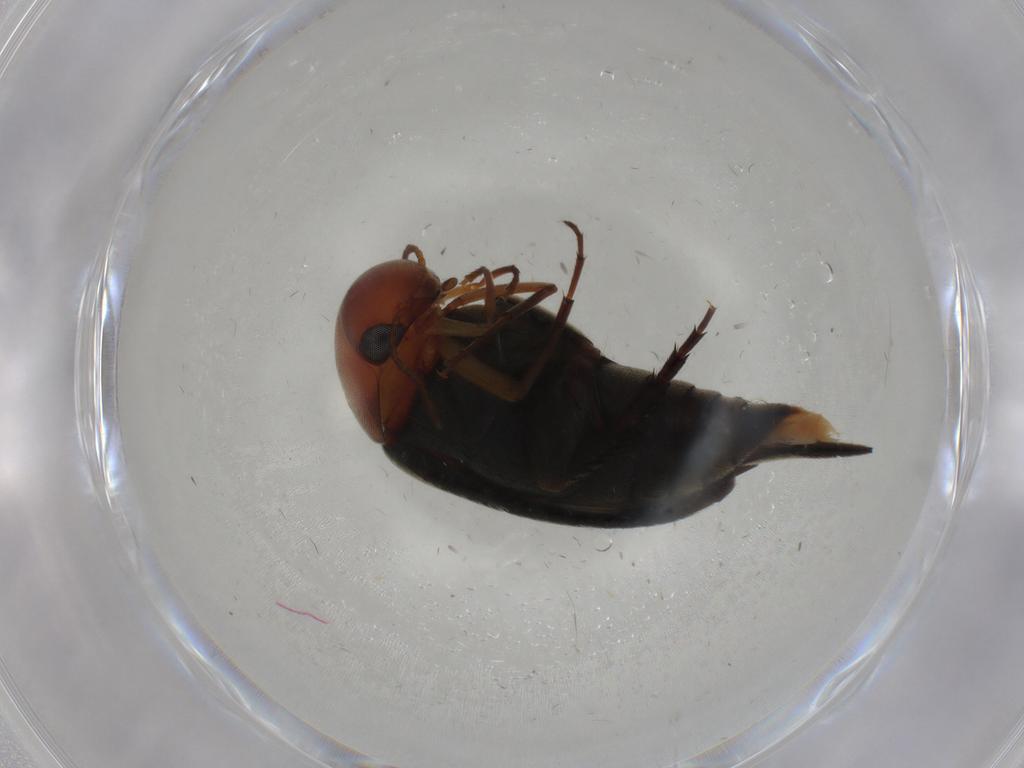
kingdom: Animalia
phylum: Arthropoda
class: Insecta
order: Coleoptera
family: Mordellidae
